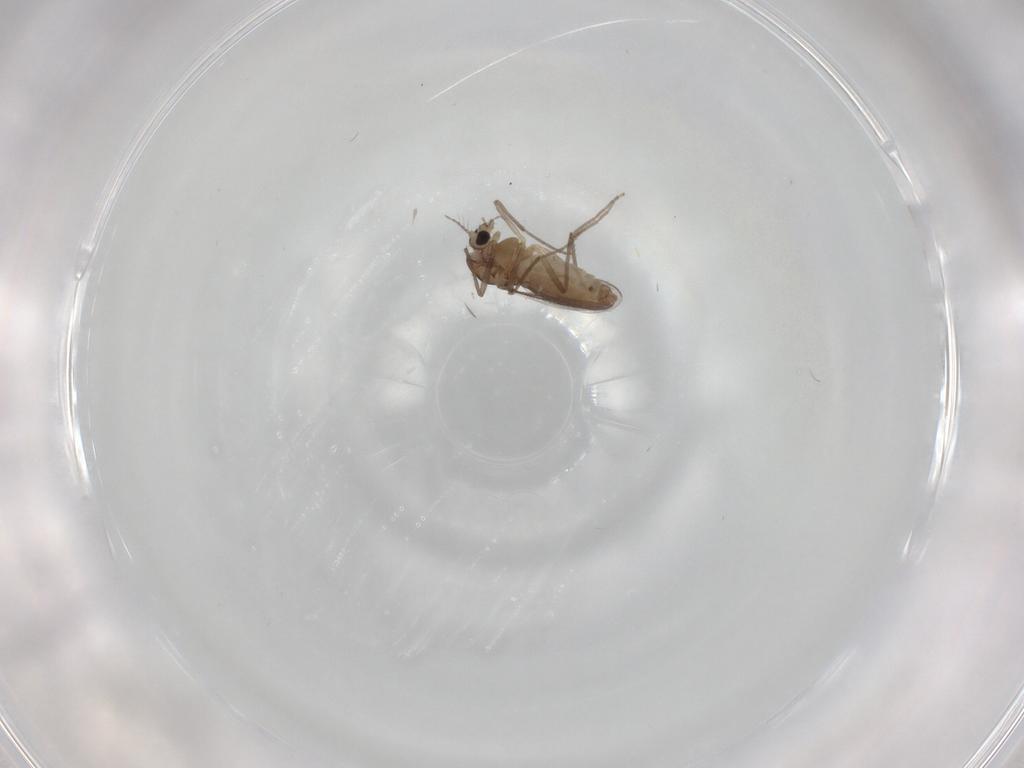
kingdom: Animalia
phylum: Arthropoda
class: Insecta
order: Diptera
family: Chironomidae
